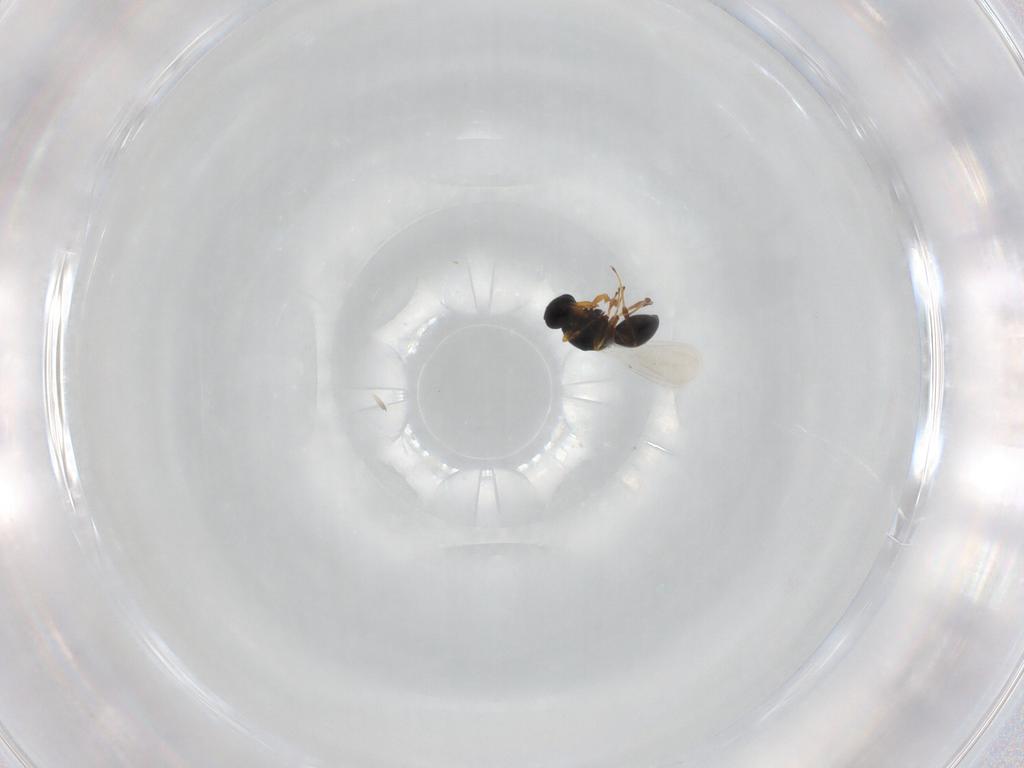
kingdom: Animalia
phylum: Arthropoda
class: Insecta
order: Hymenoptera
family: Platygastridae
